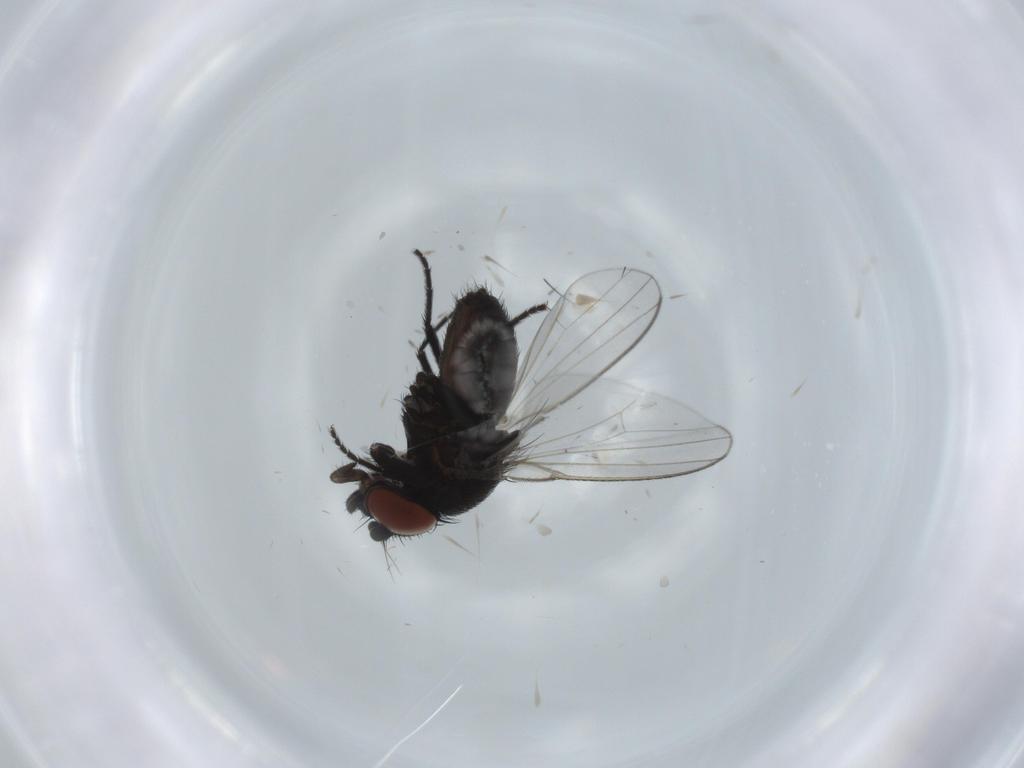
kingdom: Animalia
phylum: Arthropoda
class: Insecta
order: Diptera
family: Milichiidae
